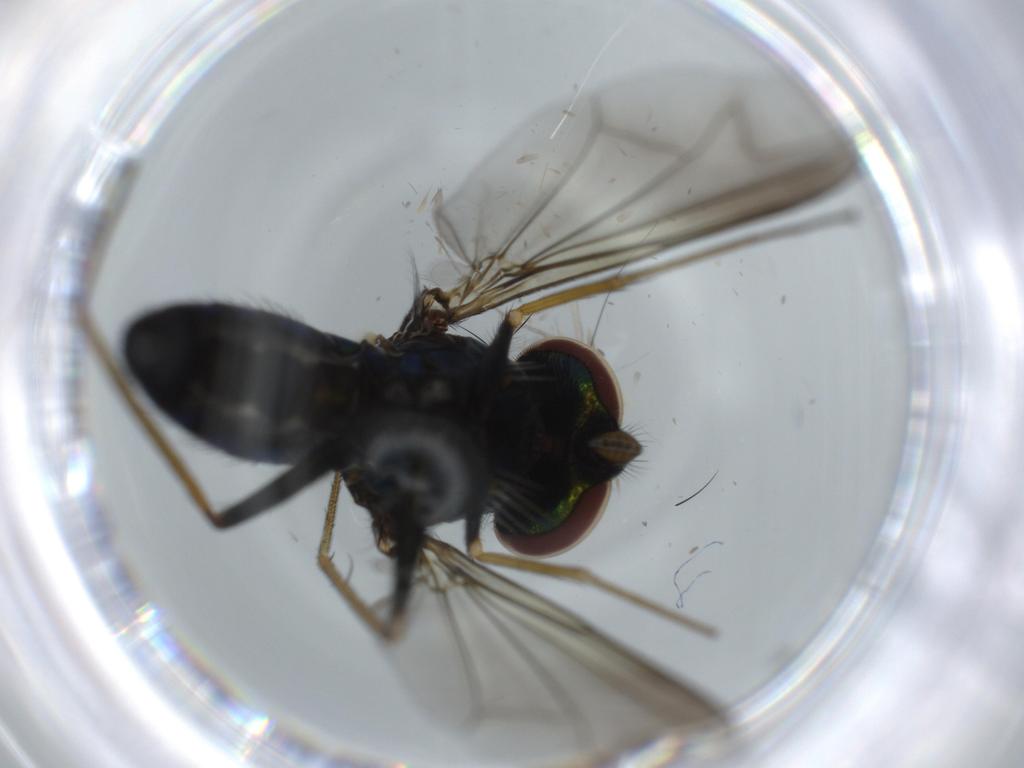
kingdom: Animalia
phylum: Arthropoda
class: Insecta
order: Diptera
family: Dolichopodidae
